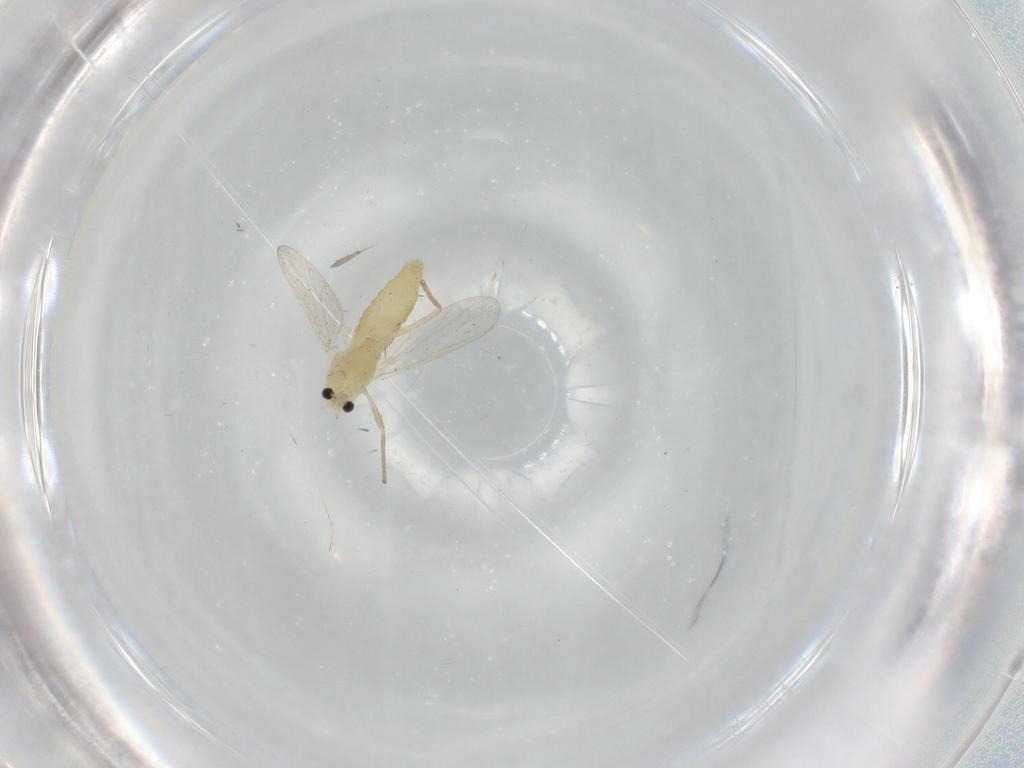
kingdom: Animalia
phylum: Arthropoda
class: Insecta
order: Diptera
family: Chironomidae
